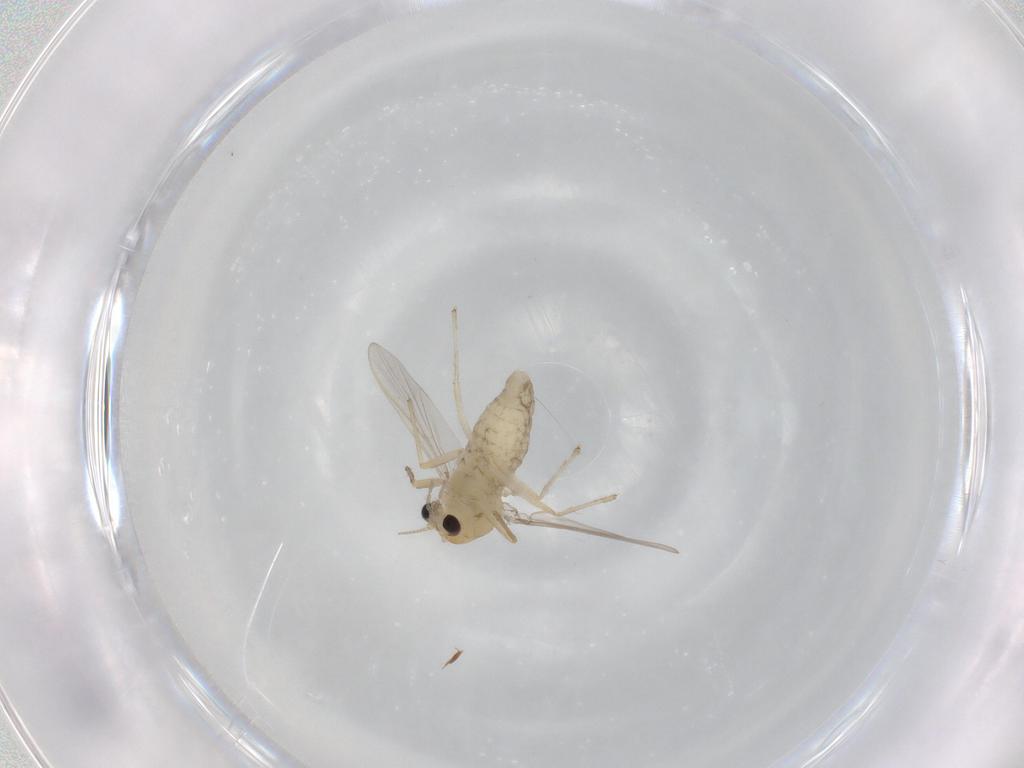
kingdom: Animalia
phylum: Arthropoda
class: Insecta
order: Diptera
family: Chironomidae
